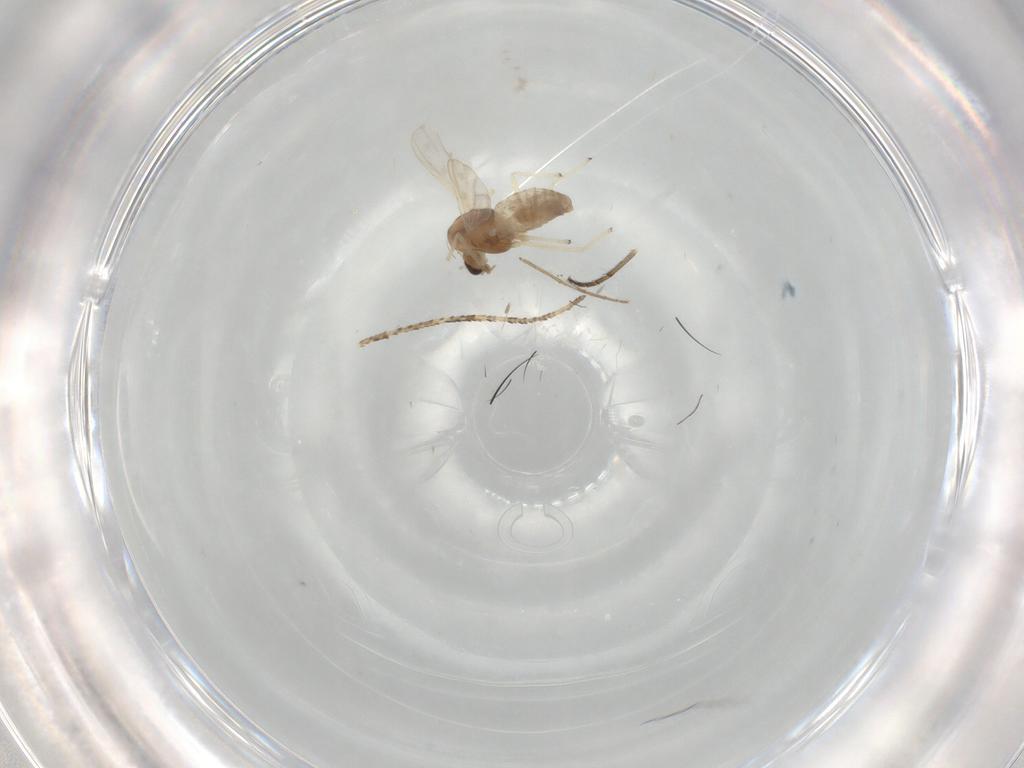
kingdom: Animalia
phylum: Arthropoda
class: Insecta
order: Diptera
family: Chironomidae
